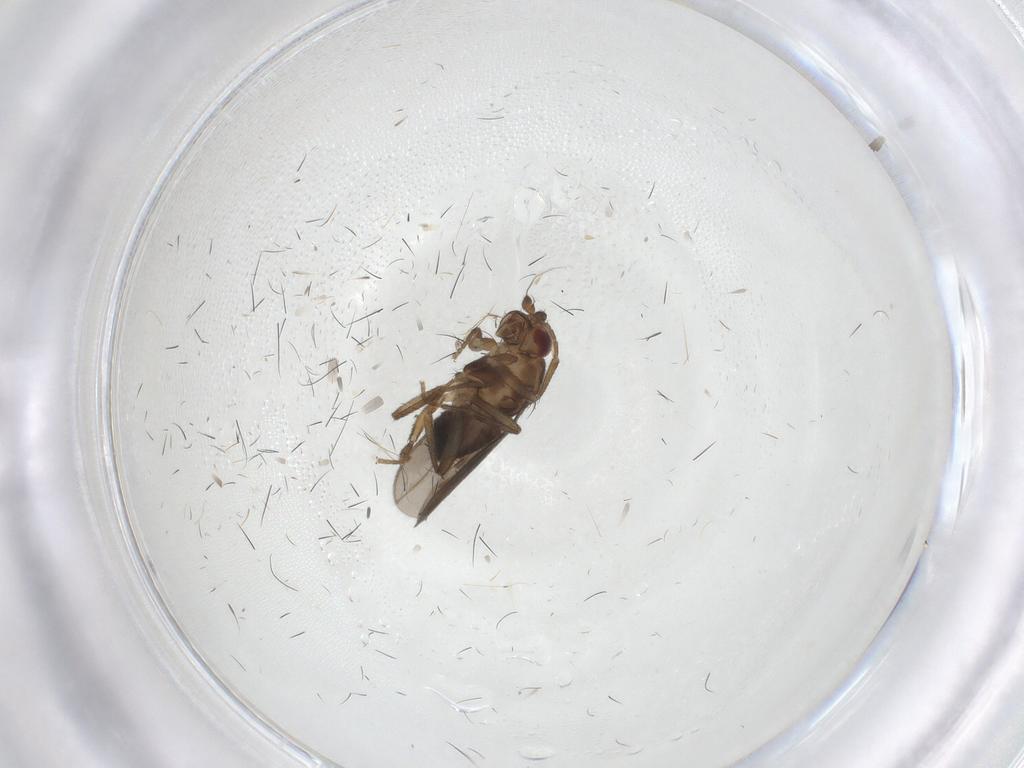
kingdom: Animalia
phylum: Arthropoda
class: Insecta
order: Diptera
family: Sphaeroceridae
